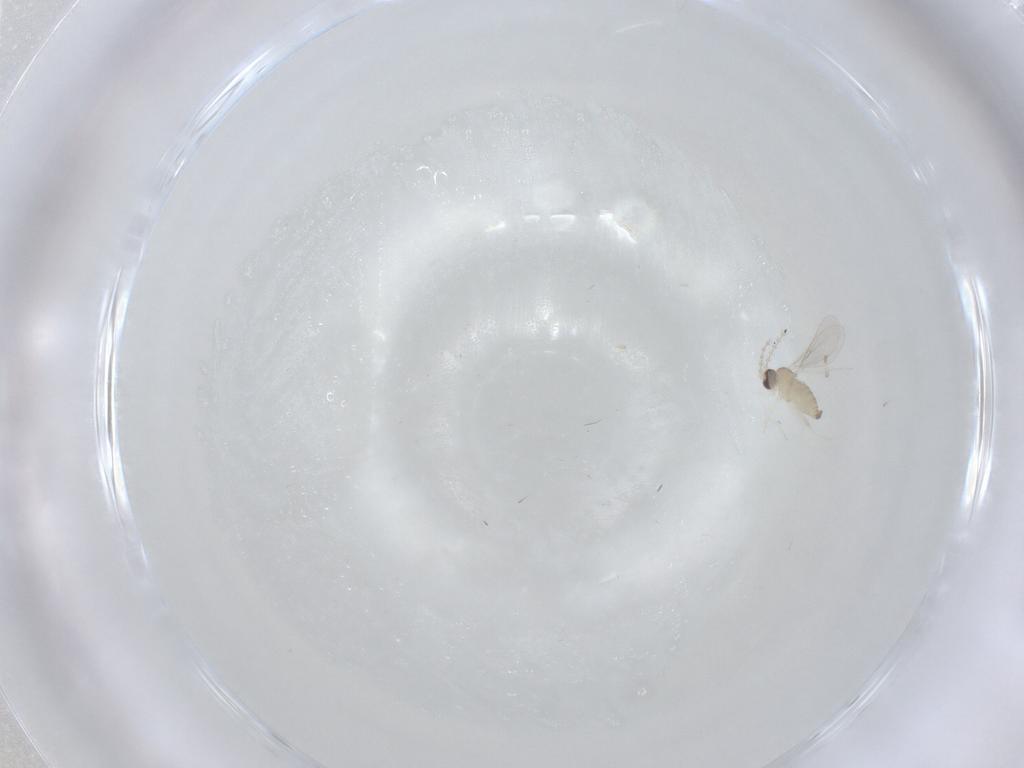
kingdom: Animalia
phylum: Arthropoda
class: Insecta
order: Diptera
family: Cecidomyiidae
